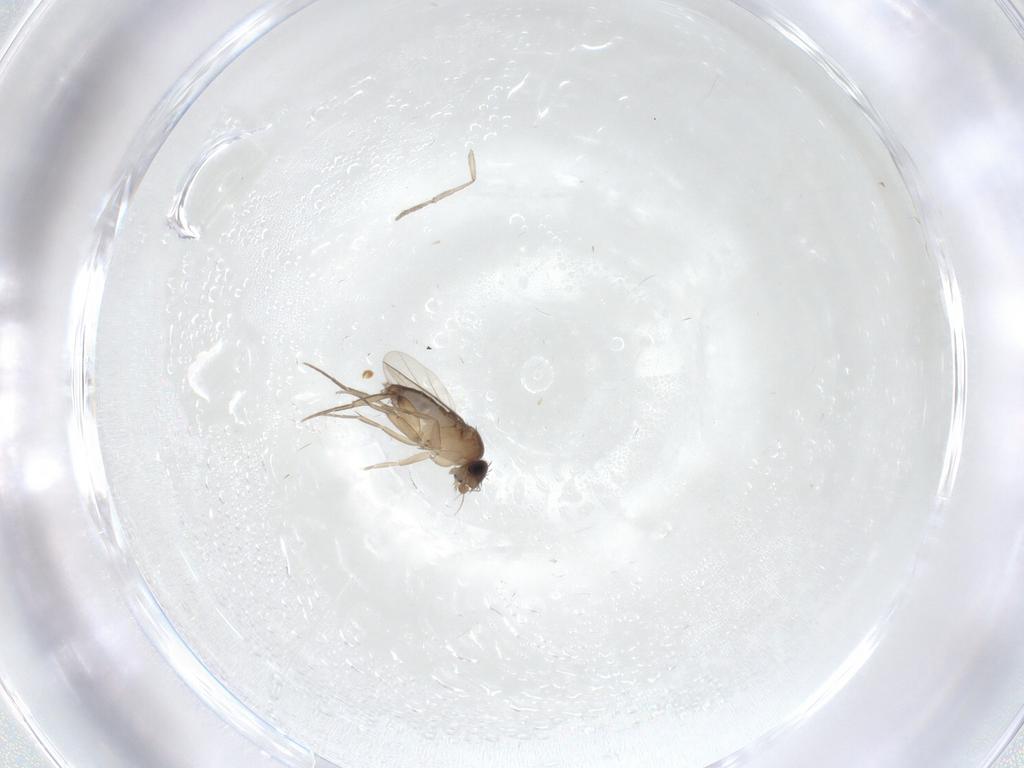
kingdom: Animalia
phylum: Arthropoda
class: Insecta
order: Diptera
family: Phoridae
